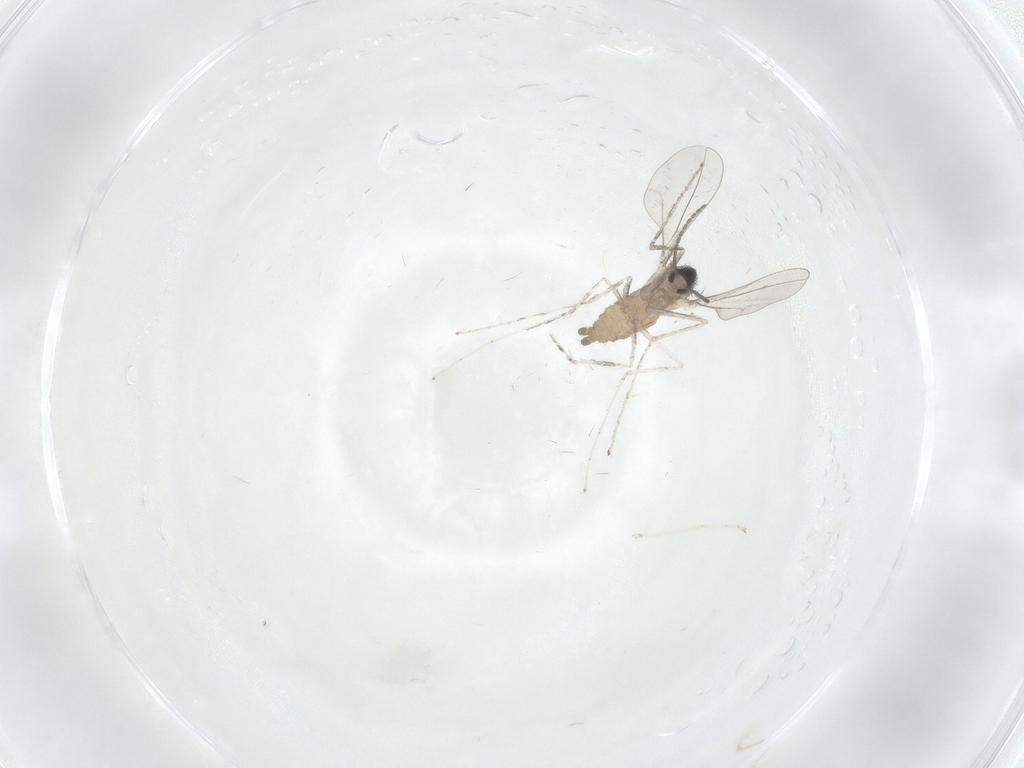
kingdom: Animalia
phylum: Arthropoda
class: Insecta
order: Diptera
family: Cecidomyiidae
